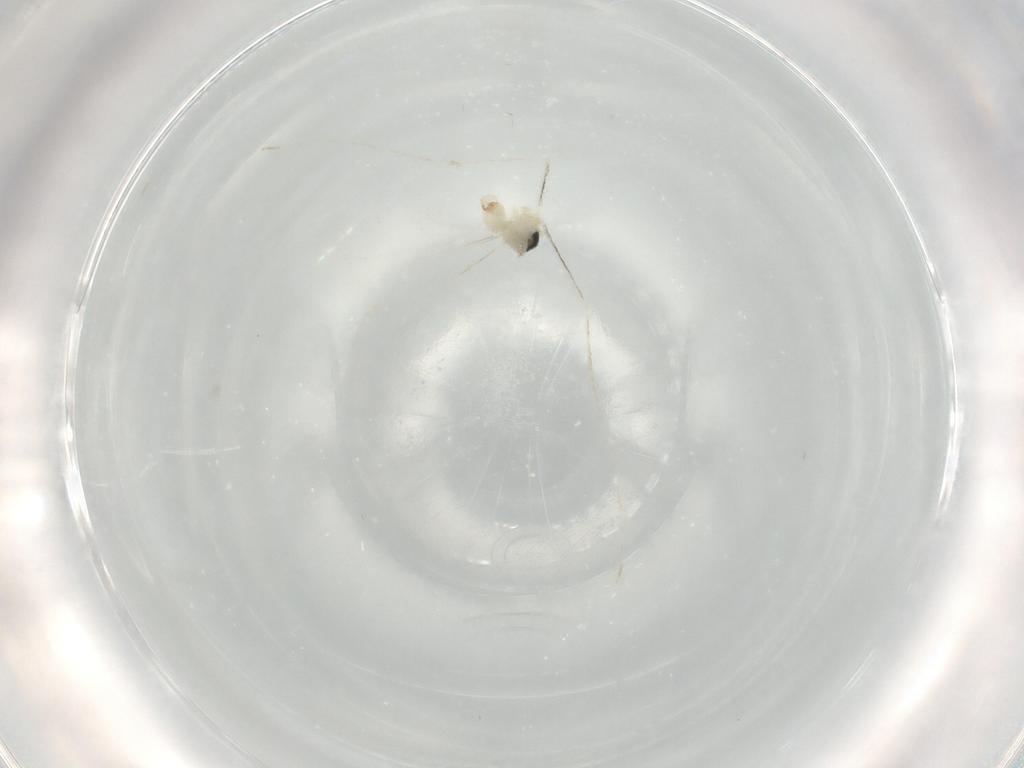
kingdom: Animalia
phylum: Arthropoda
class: Insecta
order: Diptera
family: Cecidomyiidae
